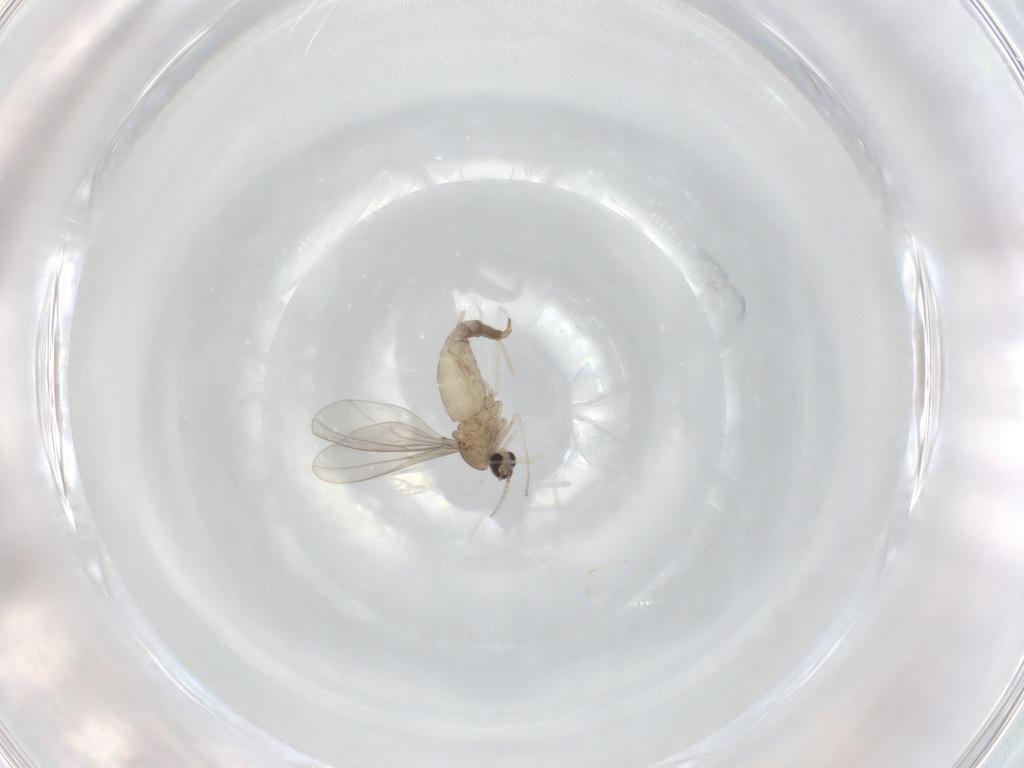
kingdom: Animalia
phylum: Arthropoda
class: Insecta
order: Diptera
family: Cecidomyiidae
